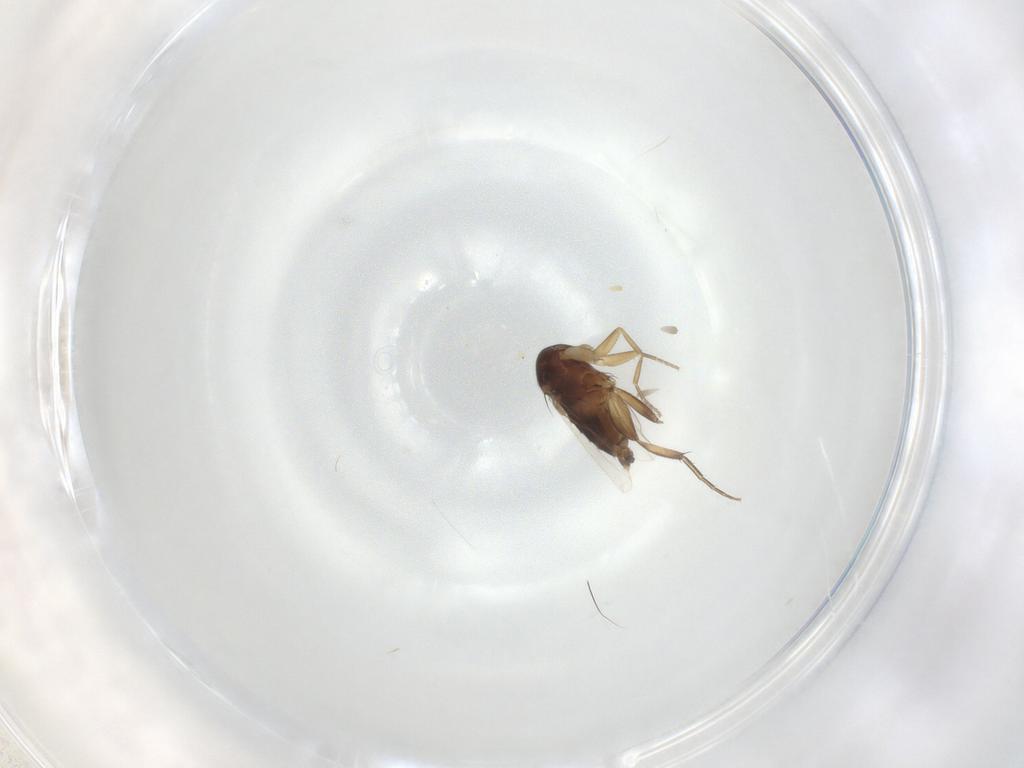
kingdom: Animalia
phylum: Arthropoda
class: Insecta
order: Diptera
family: Phoridae
